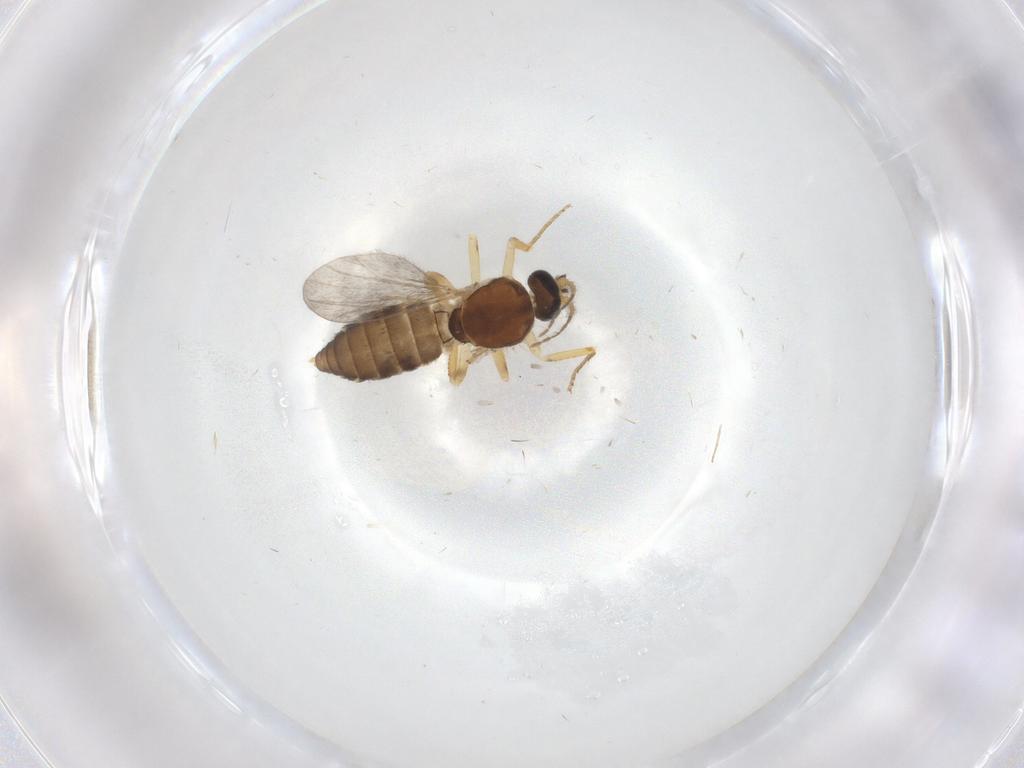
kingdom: Animalia
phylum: Arthropoda
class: Insecta
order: Diptera
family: Ceratopogonidae
